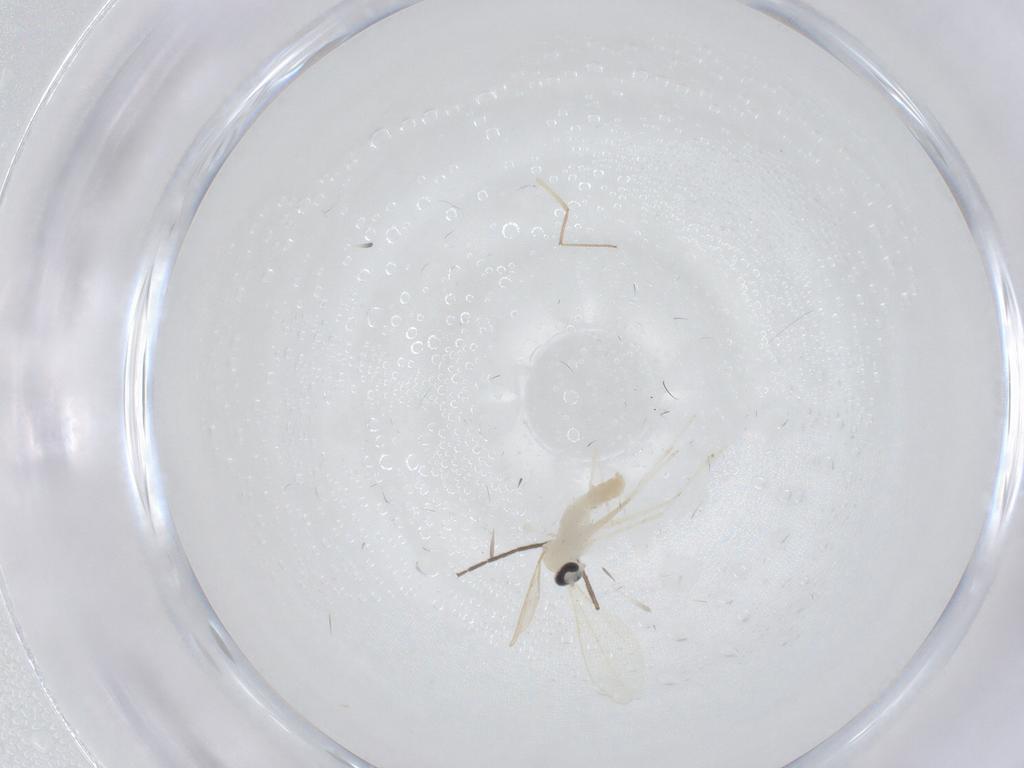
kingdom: Animalia
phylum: Arthropoda
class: Insecta
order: Diptera
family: Cecidomyiidae
